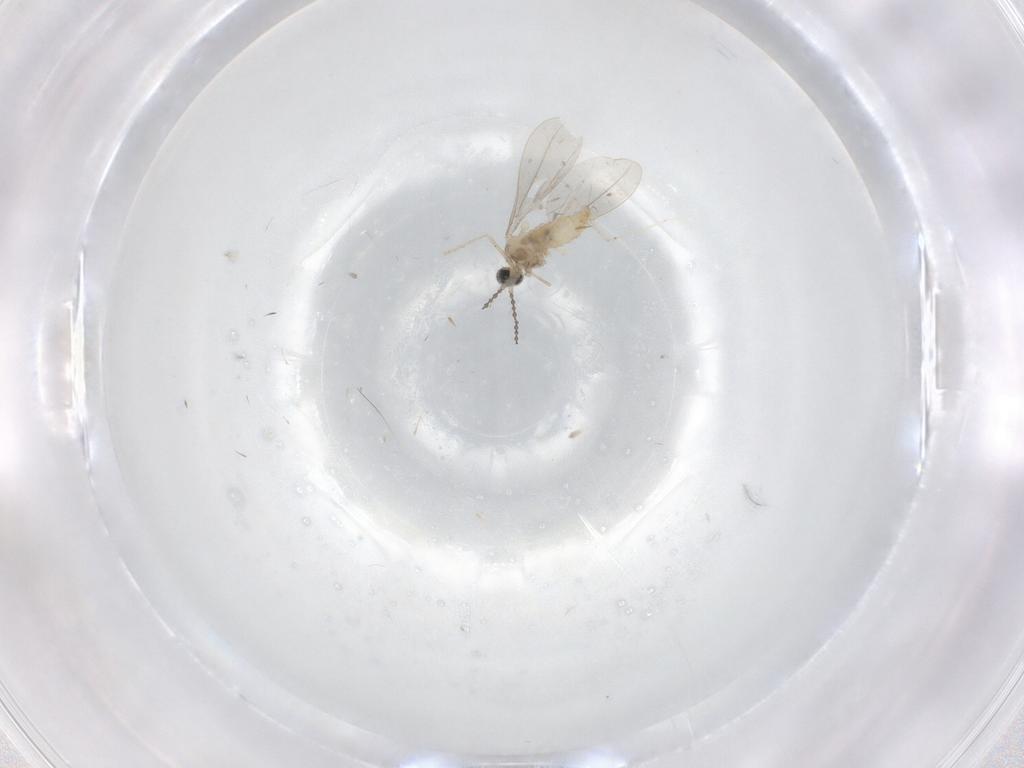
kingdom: Animalia
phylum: Arthropoda
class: Insecta
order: Diptera
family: Cecidomyiidae
